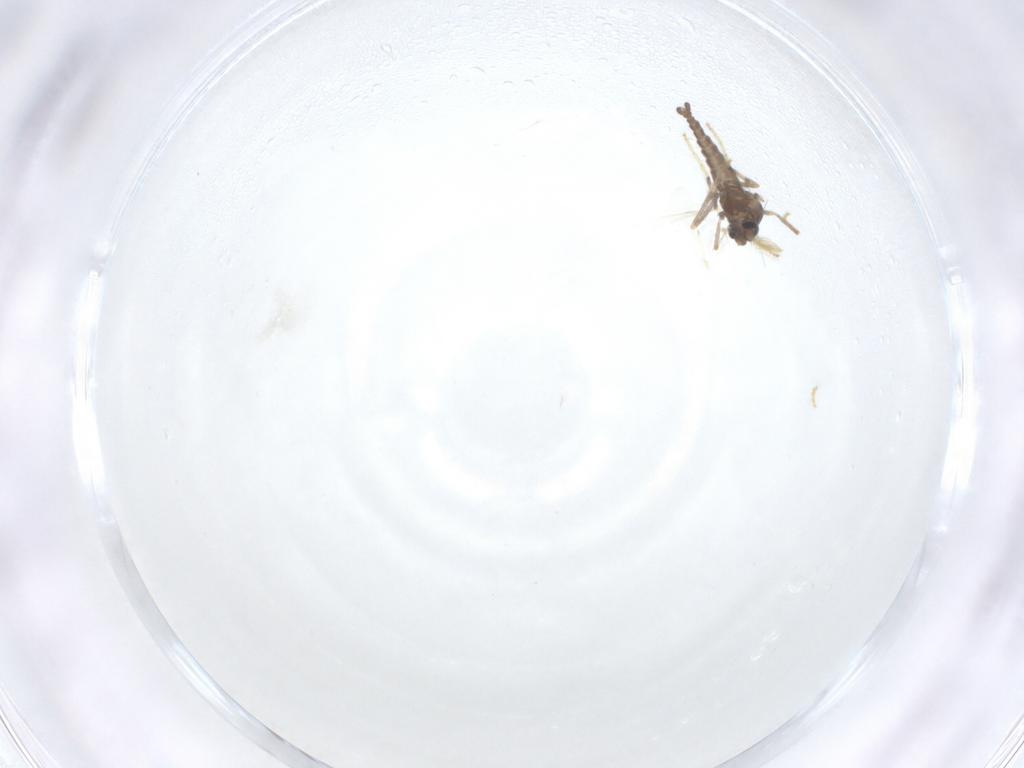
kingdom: Animalia
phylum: Arthropoda
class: Insecta
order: Diptera
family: Ceratopogonidae
